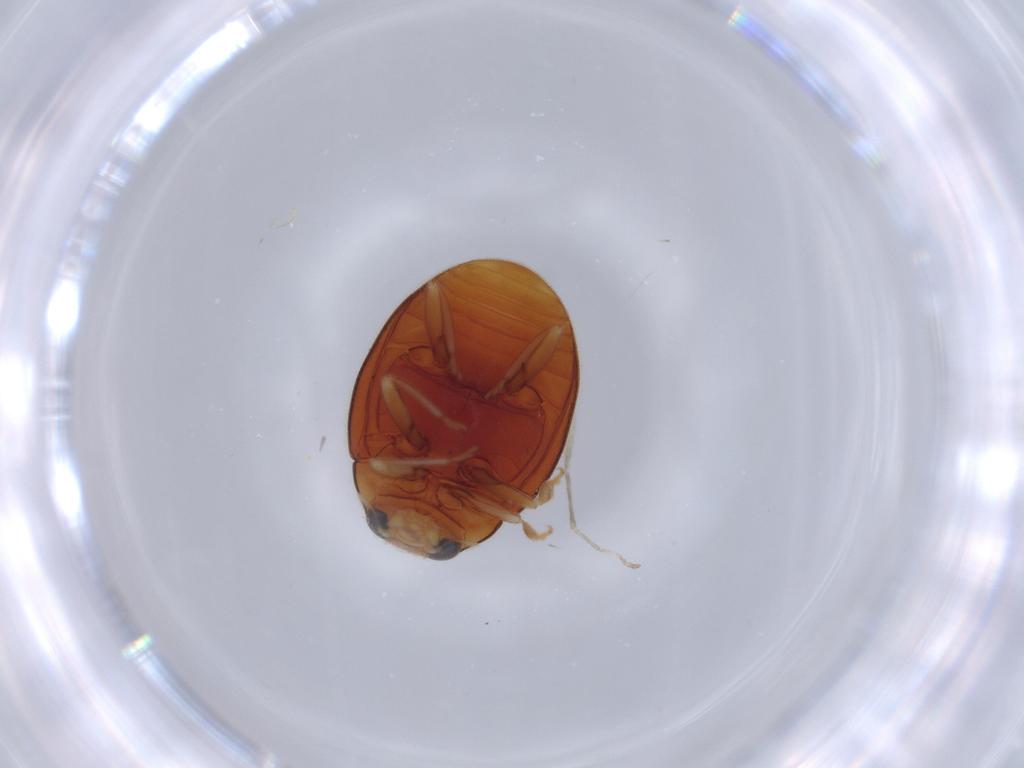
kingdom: Animalia
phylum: Arthropoda
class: Insecta
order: Coleoptera
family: Coccinellidae
